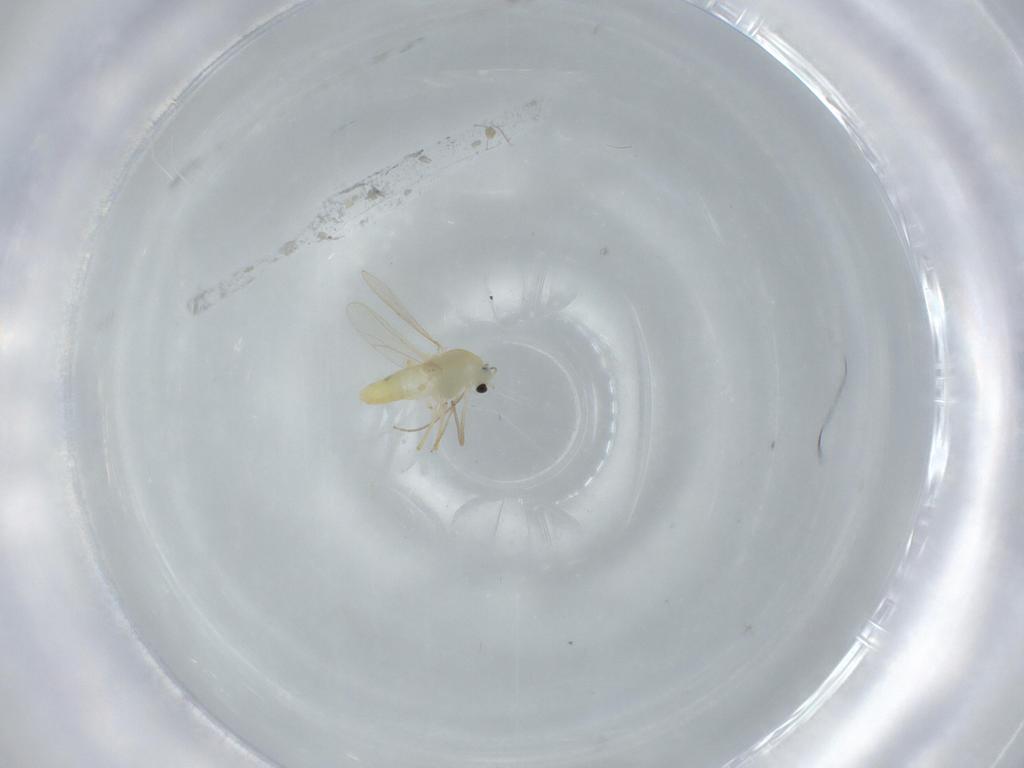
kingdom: Animalia
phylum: Arthropoda
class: Insecta
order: Diptera
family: Chironomidae
